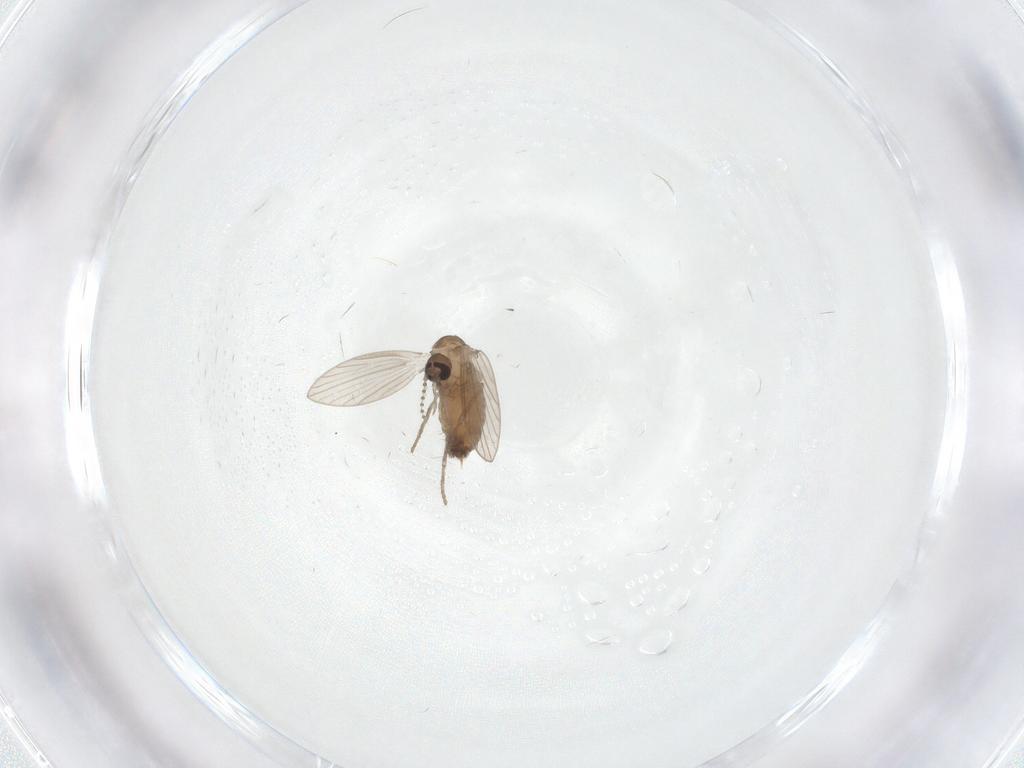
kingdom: Animalia
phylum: Arthropoda
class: Insecta
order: Diptera
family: Psychodidae
